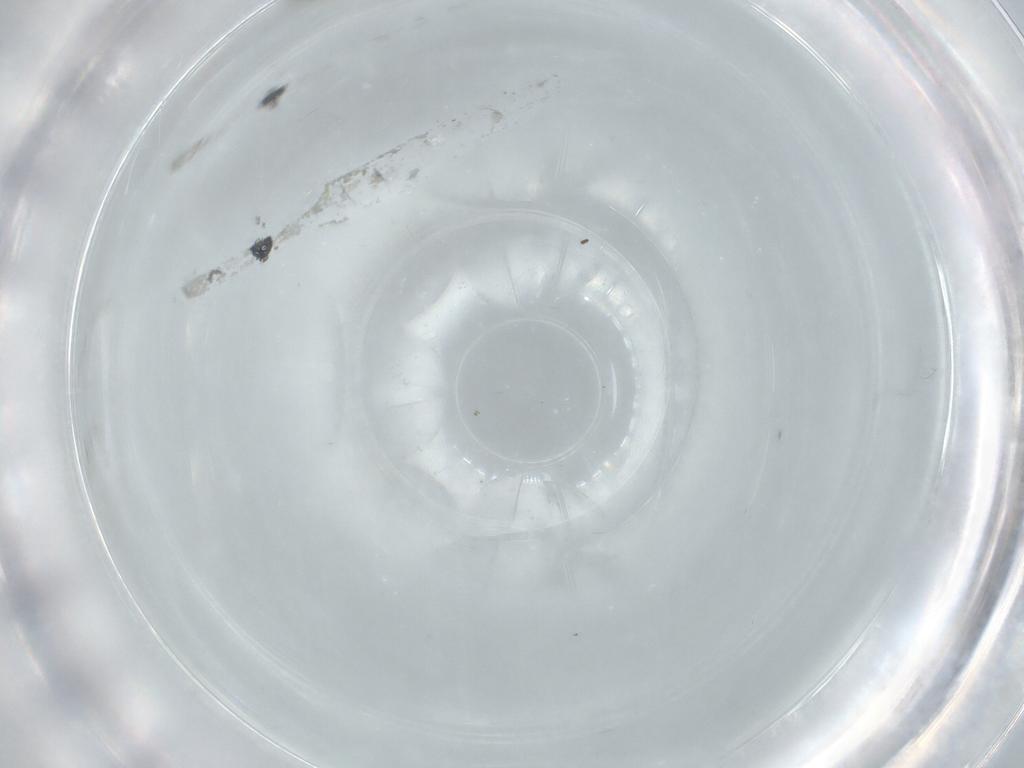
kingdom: Animalia
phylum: Arthropoda
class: Insecta
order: Diptera
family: Cecidomyiidae
